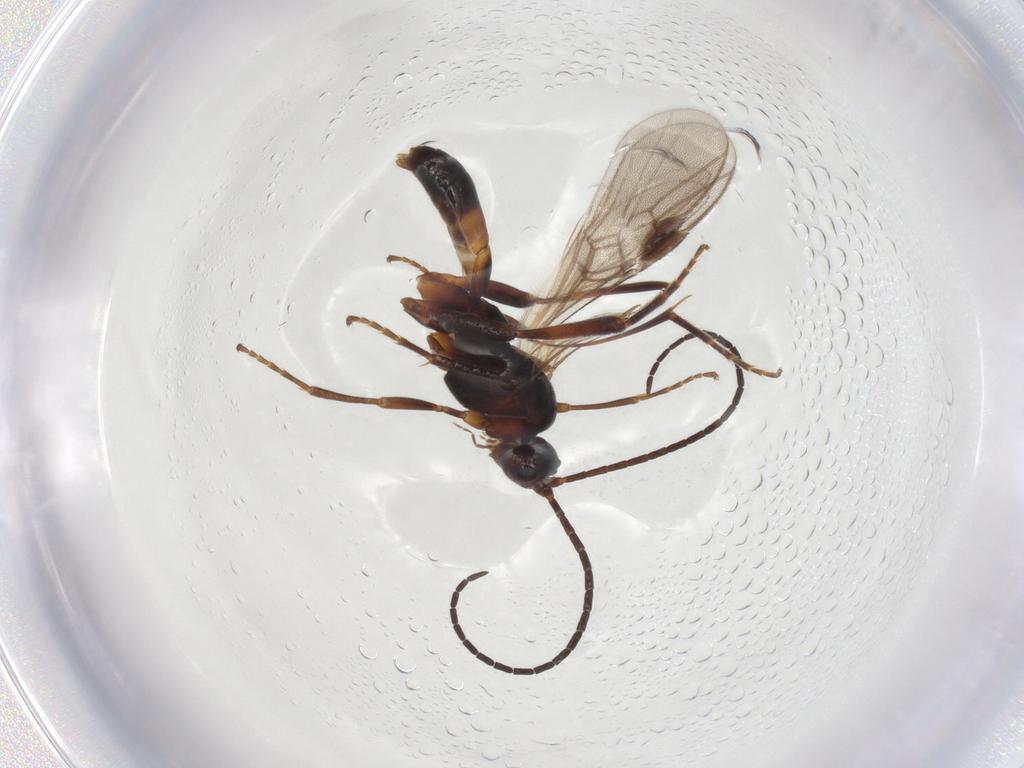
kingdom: Animalia
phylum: Arthropoda
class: Insecta
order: Hymenoptera
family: Braconidae
